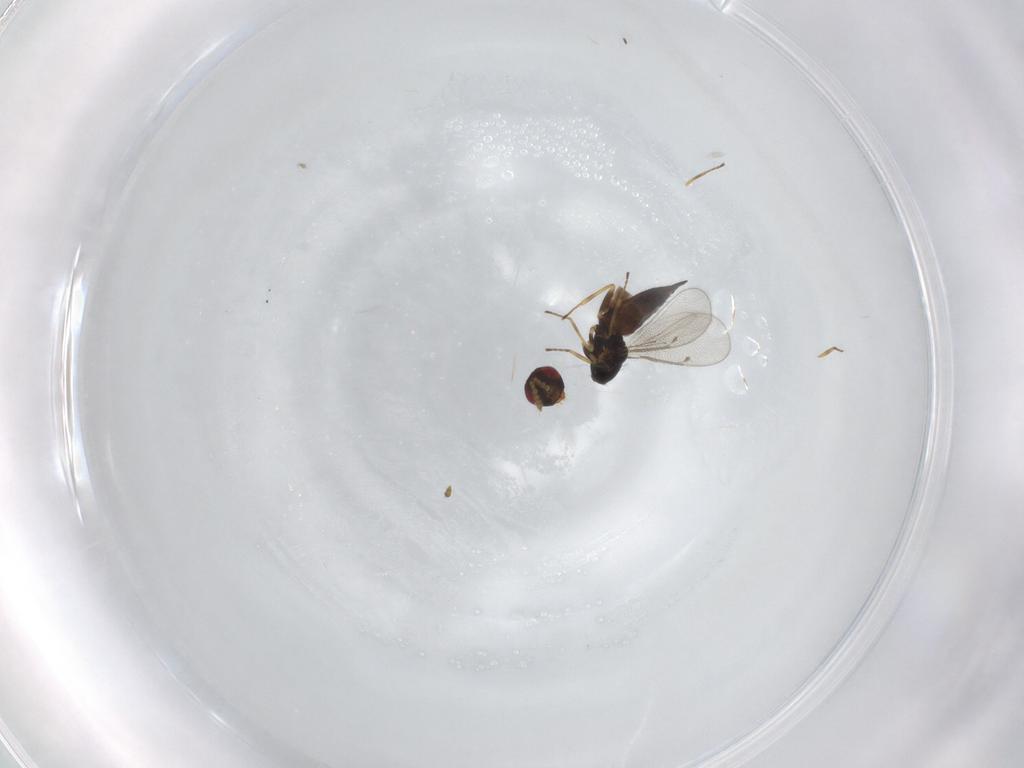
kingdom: Animalia
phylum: Arthropoda
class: Insecta
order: Hymenoptera
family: Eulophidae
